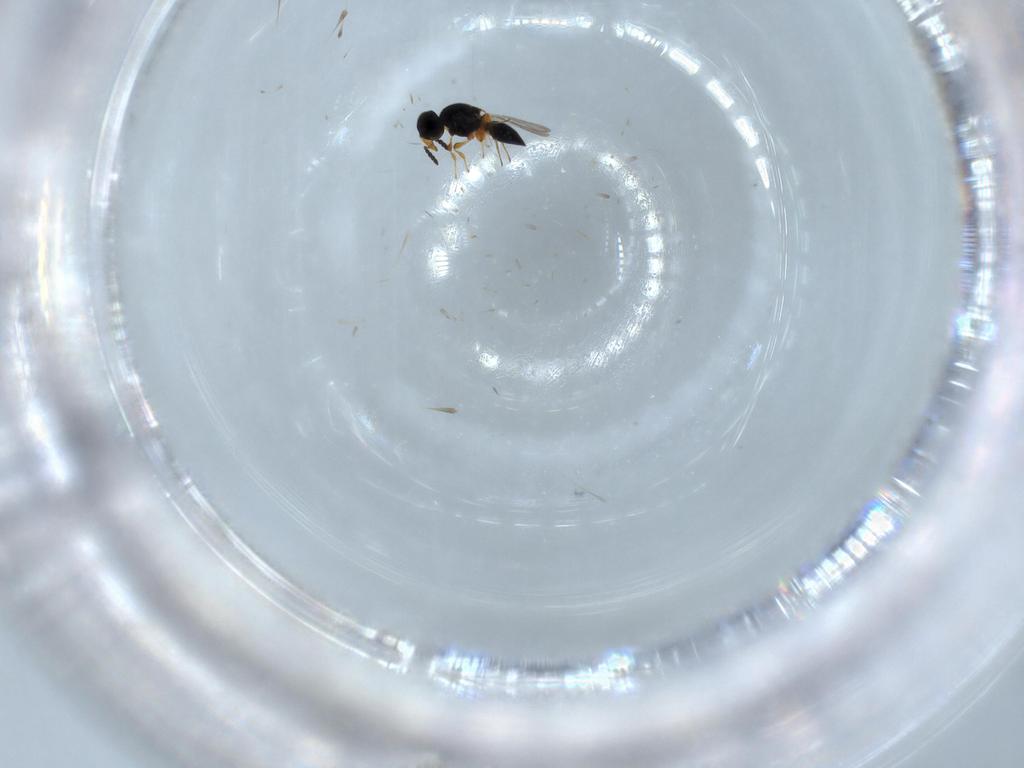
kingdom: Animalia
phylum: Arthropoda
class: Insecta
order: Hymenoptera
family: Platygastridae
